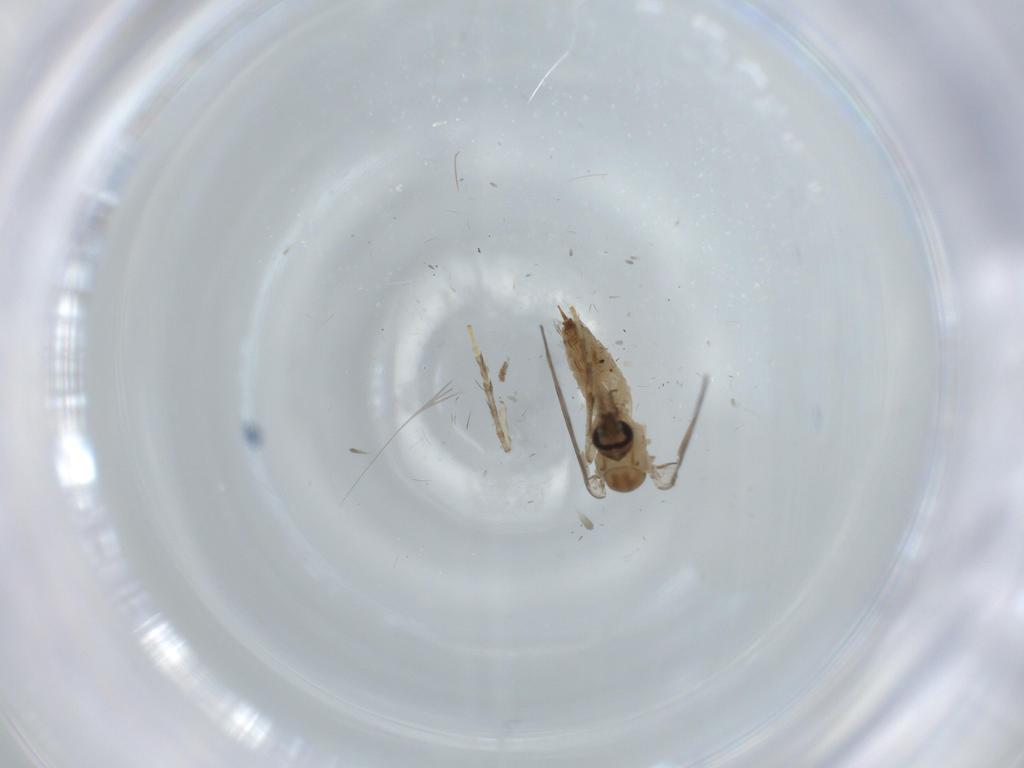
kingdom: Animalia
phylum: Arthropoda
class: Insecta
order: Diptera
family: Psychodidae
